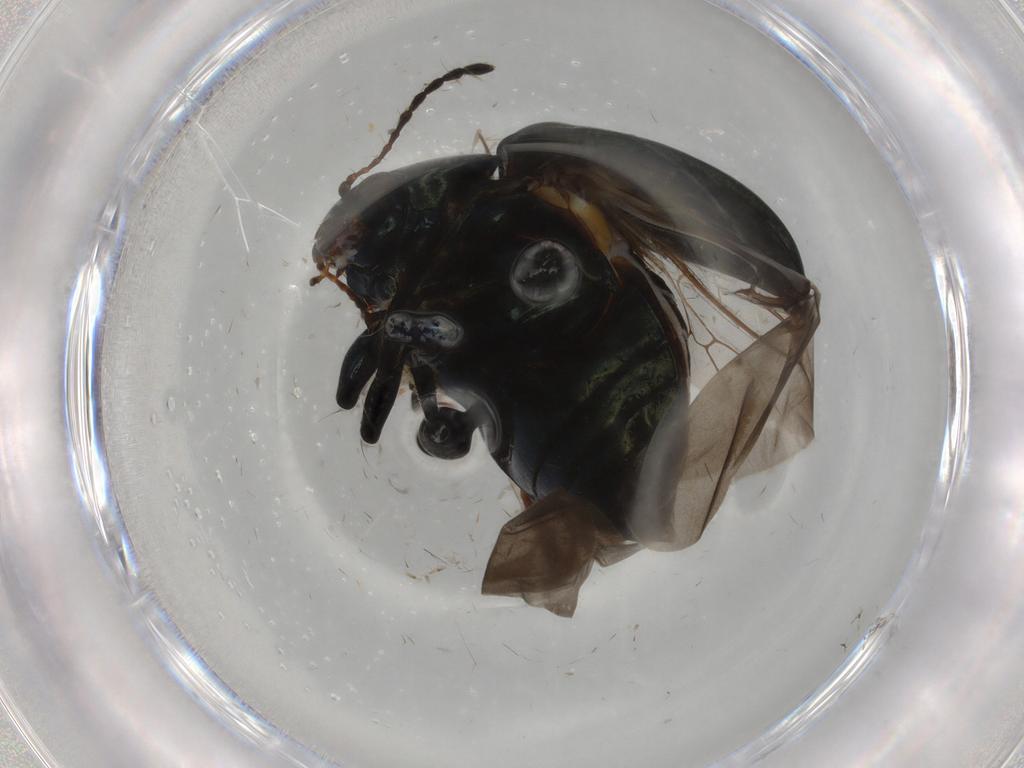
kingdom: Animalia
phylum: Arthropoda
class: Insecta
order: Coleoptera
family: Chrysomelidae
